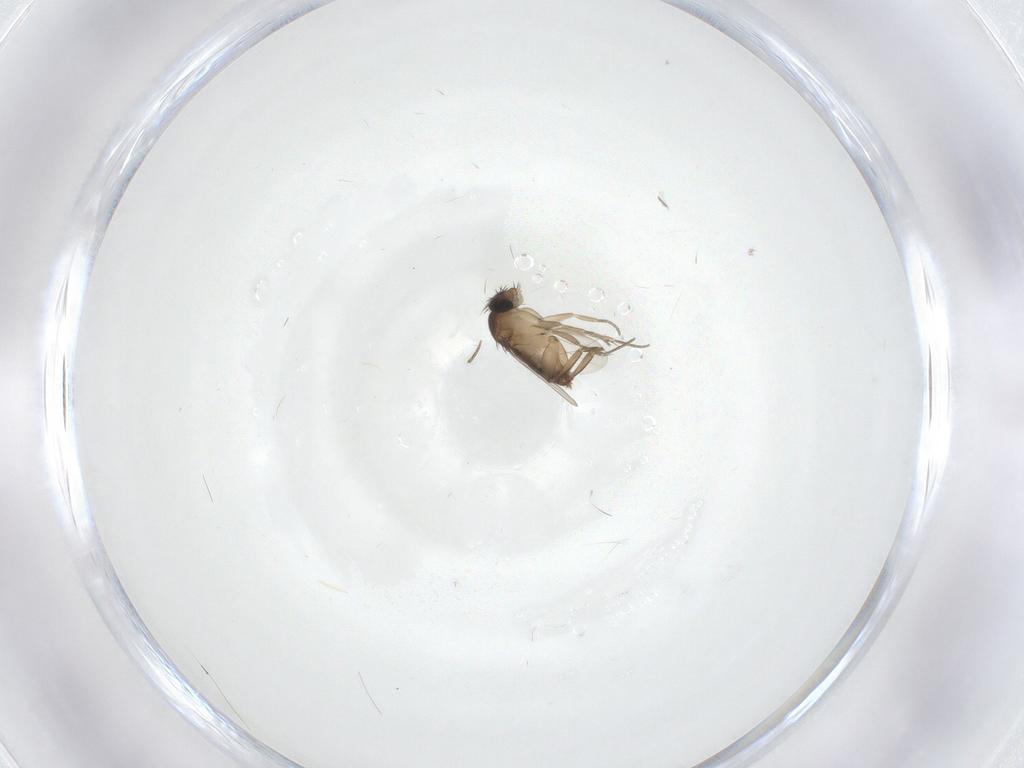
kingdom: Animalia
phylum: Arthropoda
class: Insecta
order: Diptera
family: Phoridae
